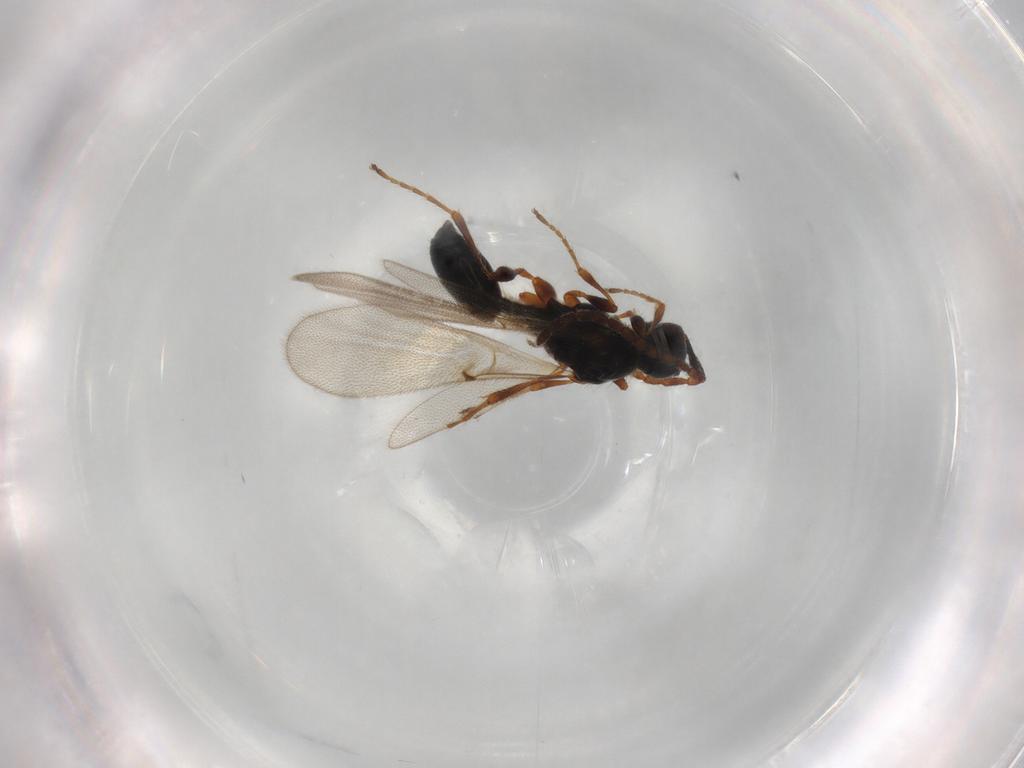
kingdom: Animalia
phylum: Arthropoda
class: Insecta
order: Hymenoptera
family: Diapriidae
